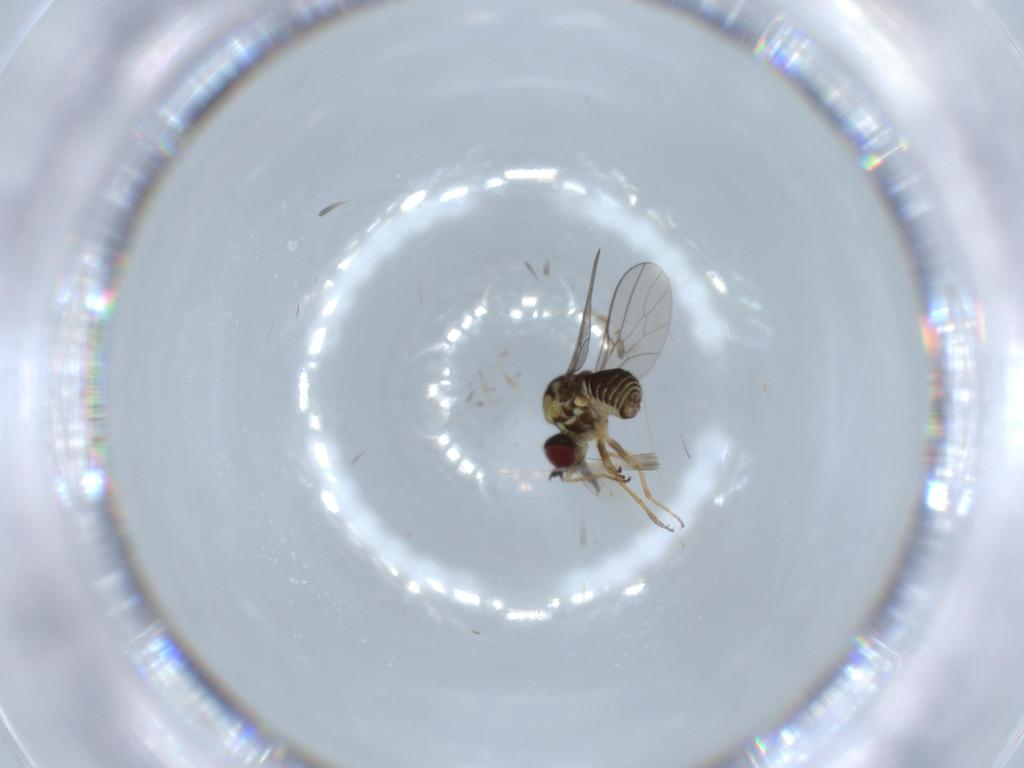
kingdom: Animalia
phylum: Arthropoda
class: Insecta
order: Diptera
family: Bombyliidae
